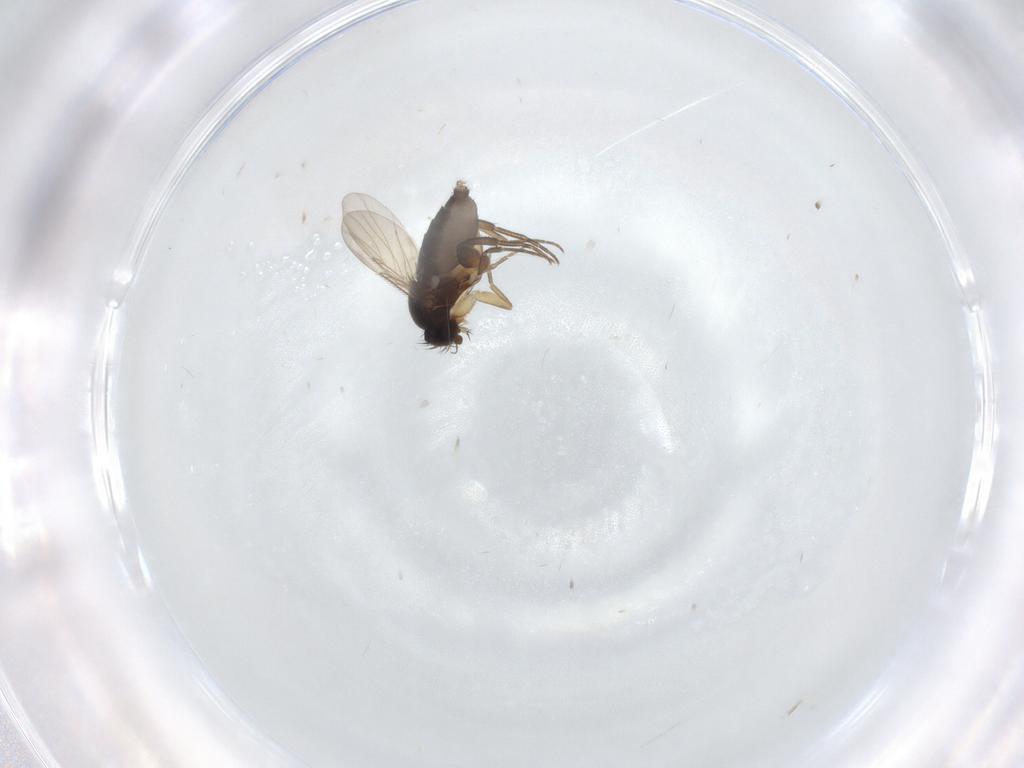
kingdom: Animalia
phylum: Arthropoda
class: Insecta
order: Diptera
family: Phoridae
